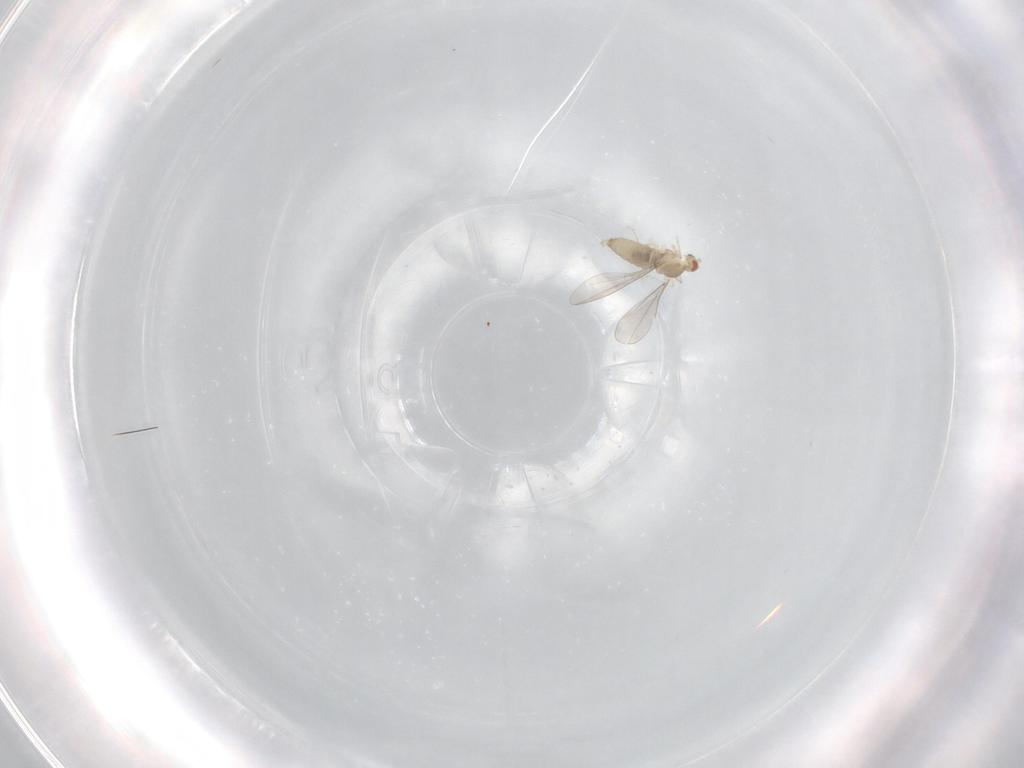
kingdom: Animalia
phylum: Arthropoda
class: Insecta
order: Diptera
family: Cecidomyiidae
